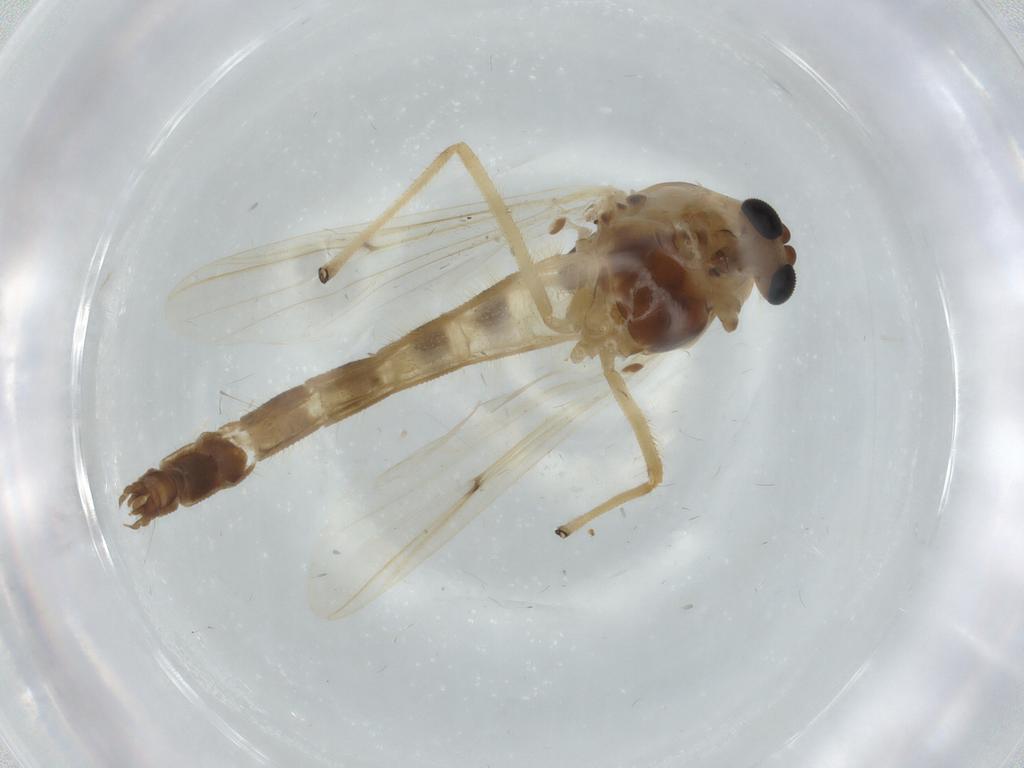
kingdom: Animalia
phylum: Arthropoda
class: Insecta
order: Diptera
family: Chironomidae
